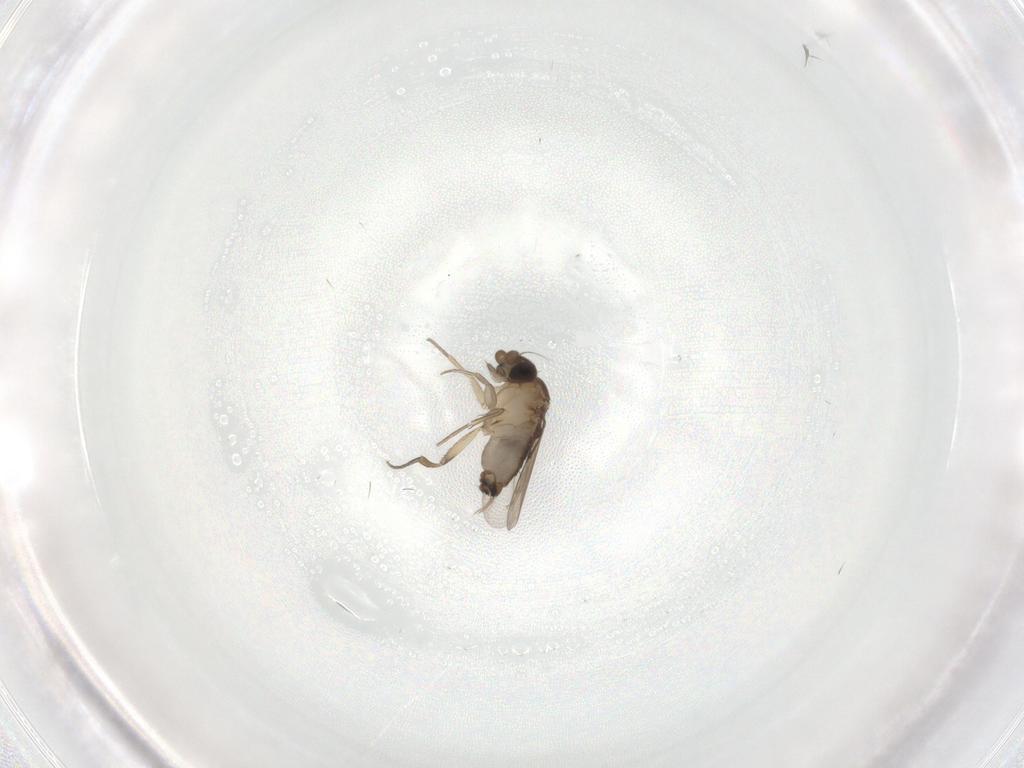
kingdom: Animalia
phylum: Arthropoda
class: Insecta
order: Diptera
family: Phoridae
